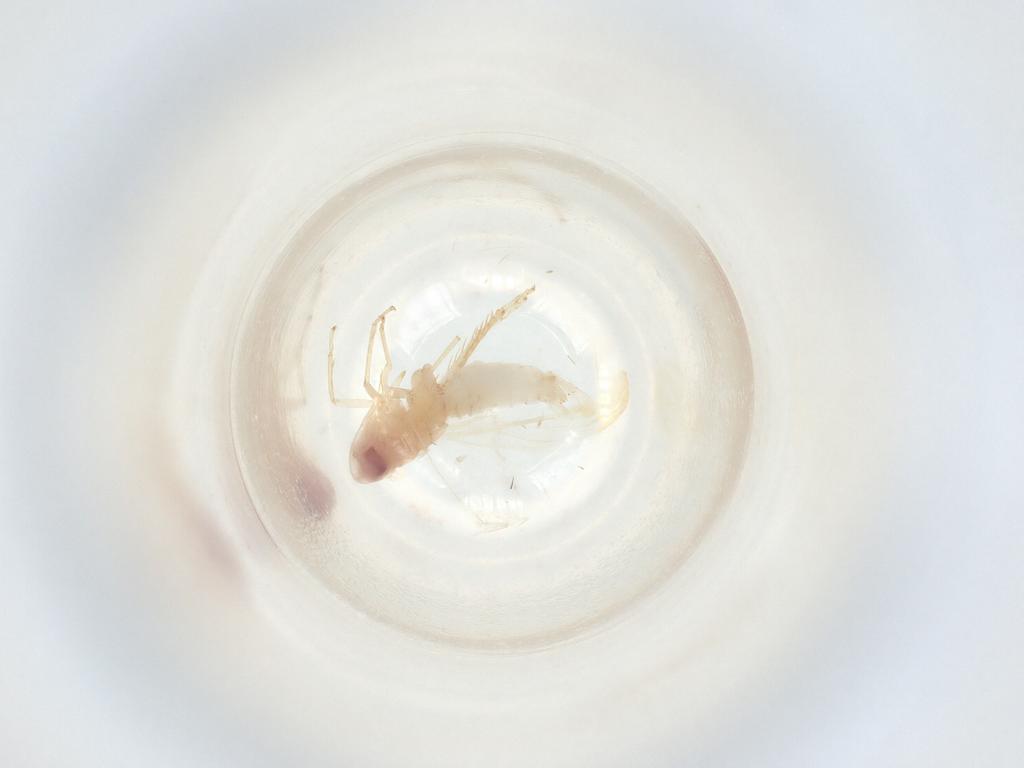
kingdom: Animalia
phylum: Arthropoda
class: Insecta
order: Hemiptera
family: Cicadellidae
